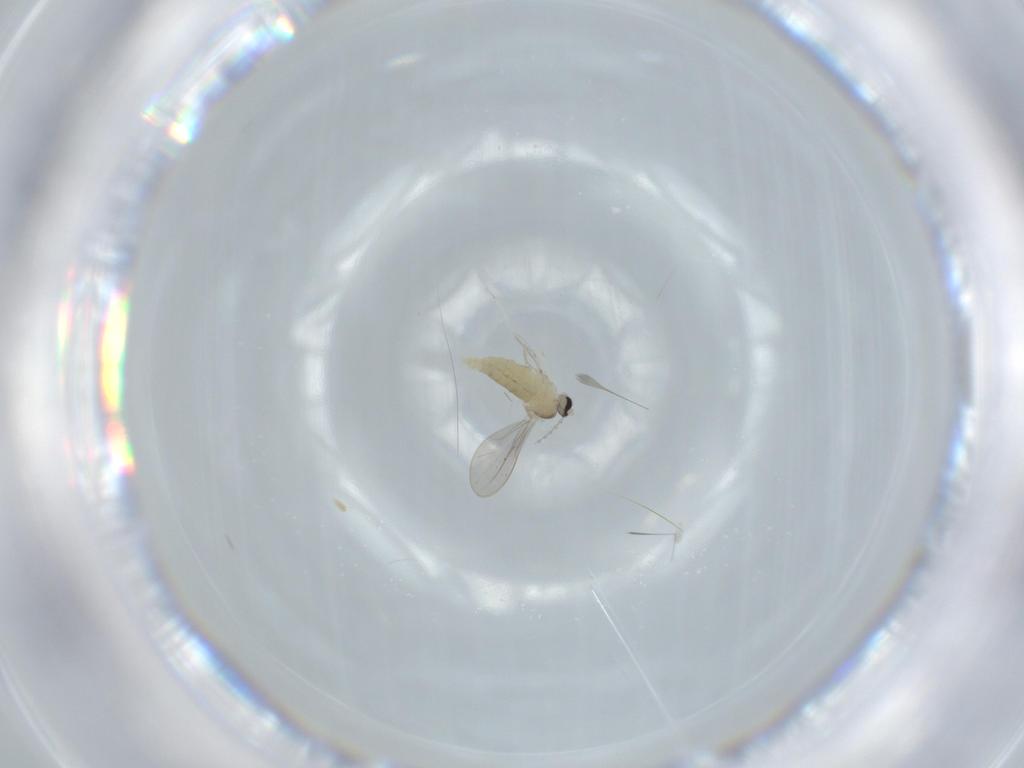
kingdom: Animalia
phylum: Arthropoda
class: Insecta
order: Diptera
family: Cecidomyiidae
